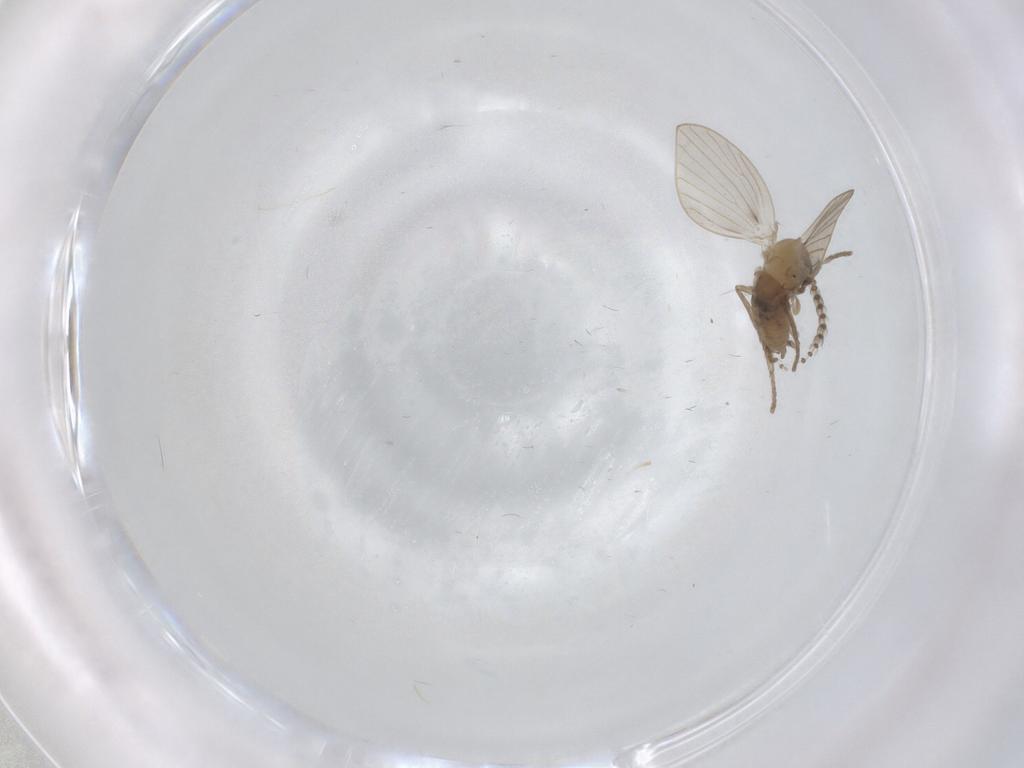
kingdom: Animalia
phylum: Arthropoda
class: Insecta
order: Diptera
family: Psychodidae
